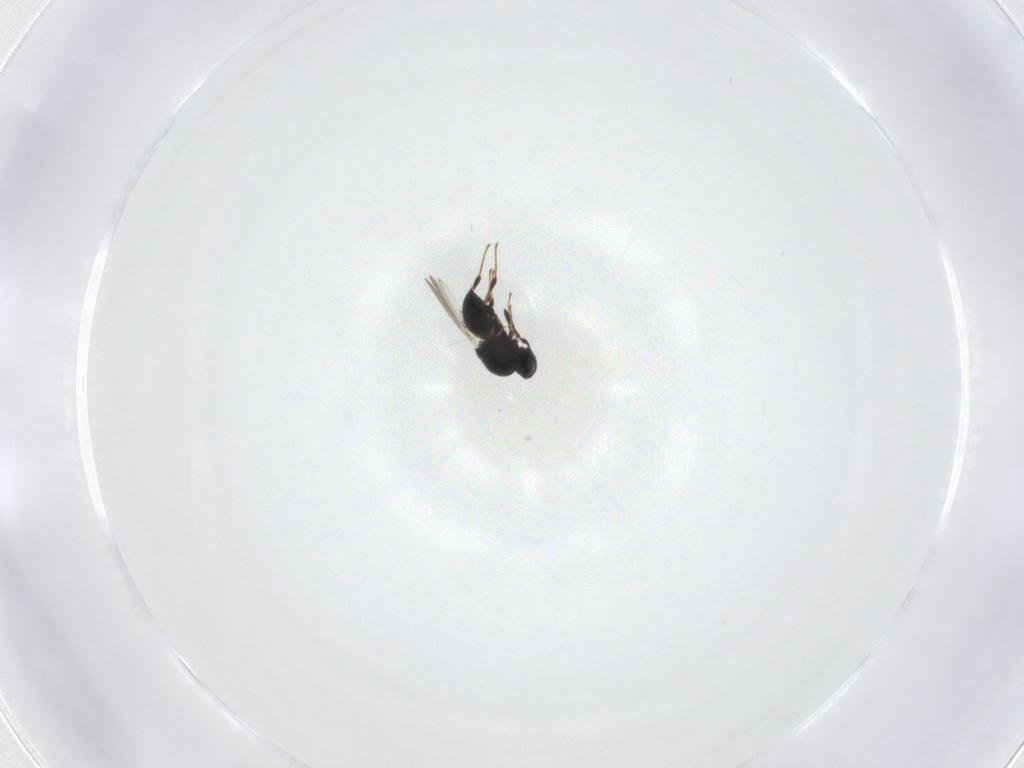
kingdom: Animalia
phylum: Arthropoda
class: Insecta
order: Hymenoptera
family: Platygastridae
